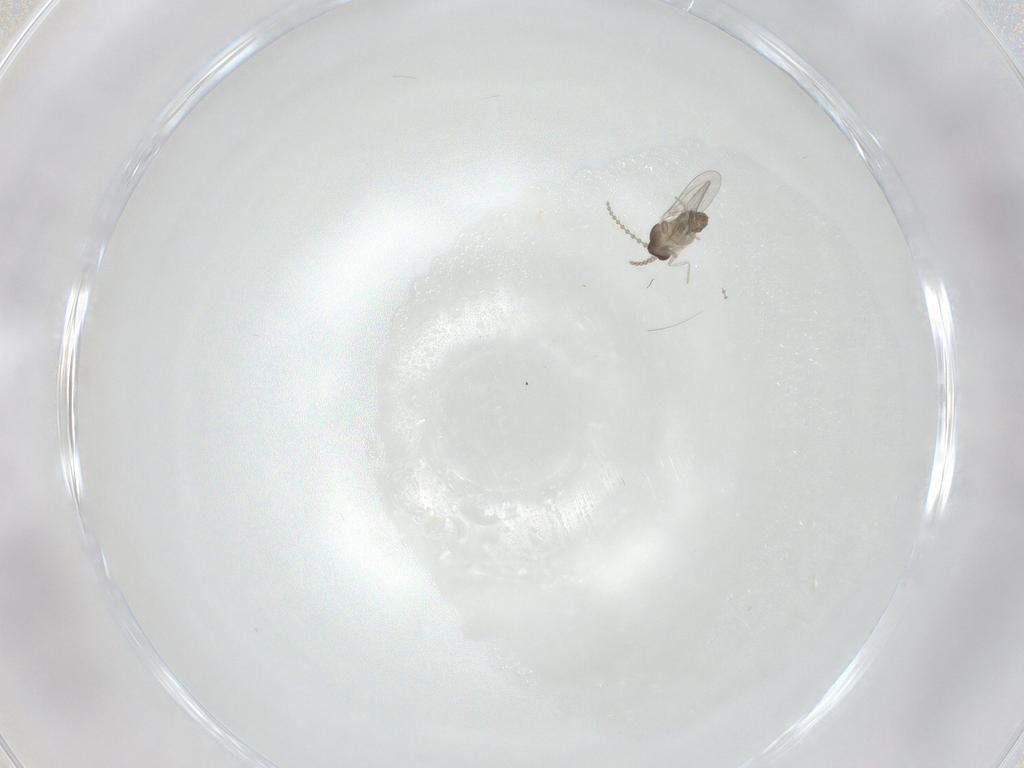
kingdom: Animalia
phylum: Arthropoda
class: Insecta
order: Diptera
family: Cecidomyiidae
